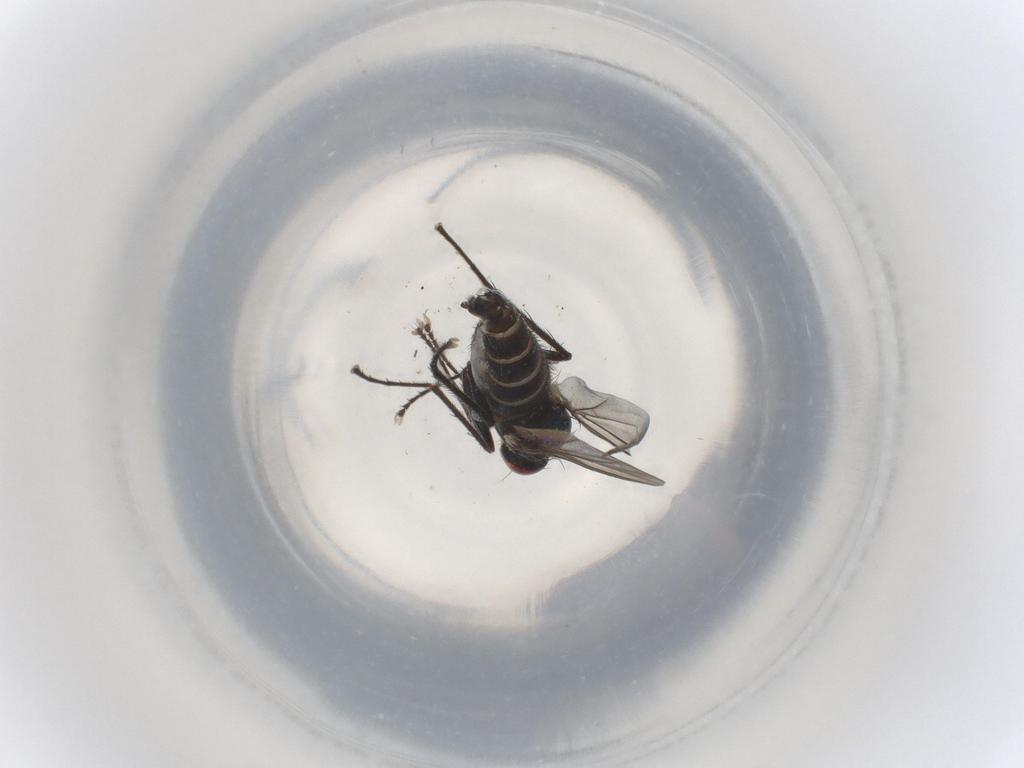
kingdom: Animalia
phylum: Arthropoda
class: Insecta
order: Diptera
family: Dolichopodidae
